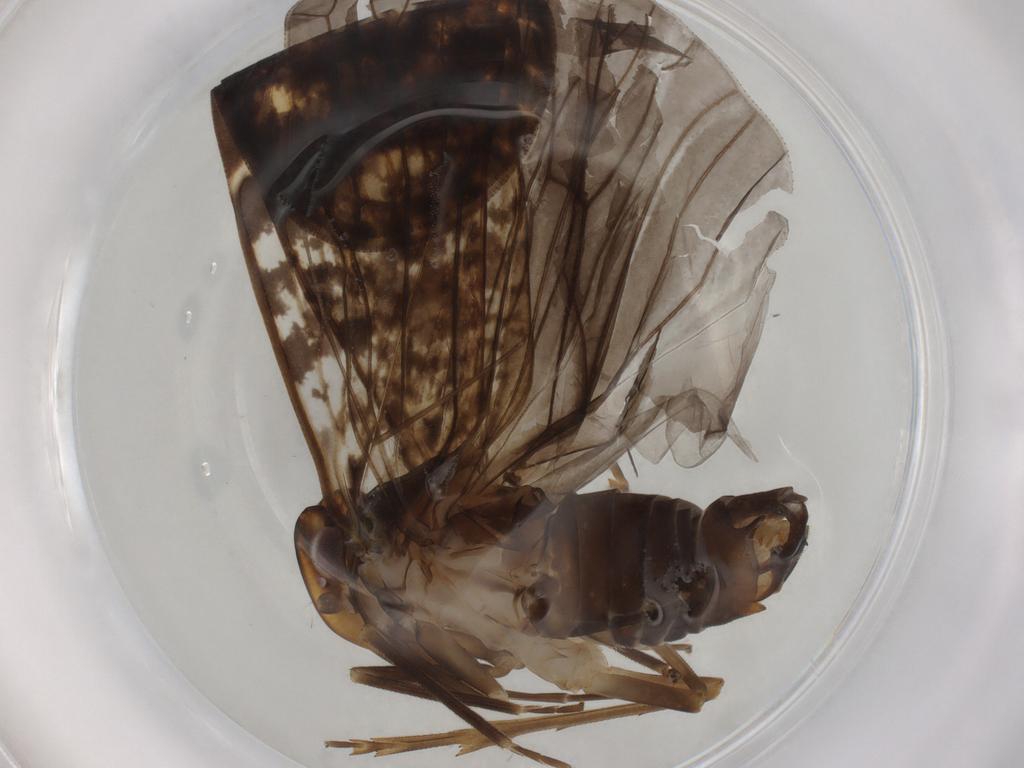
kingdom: Animalia
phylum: Arthropoda
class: Insecta
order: Hemiptera
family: Cixiidae
